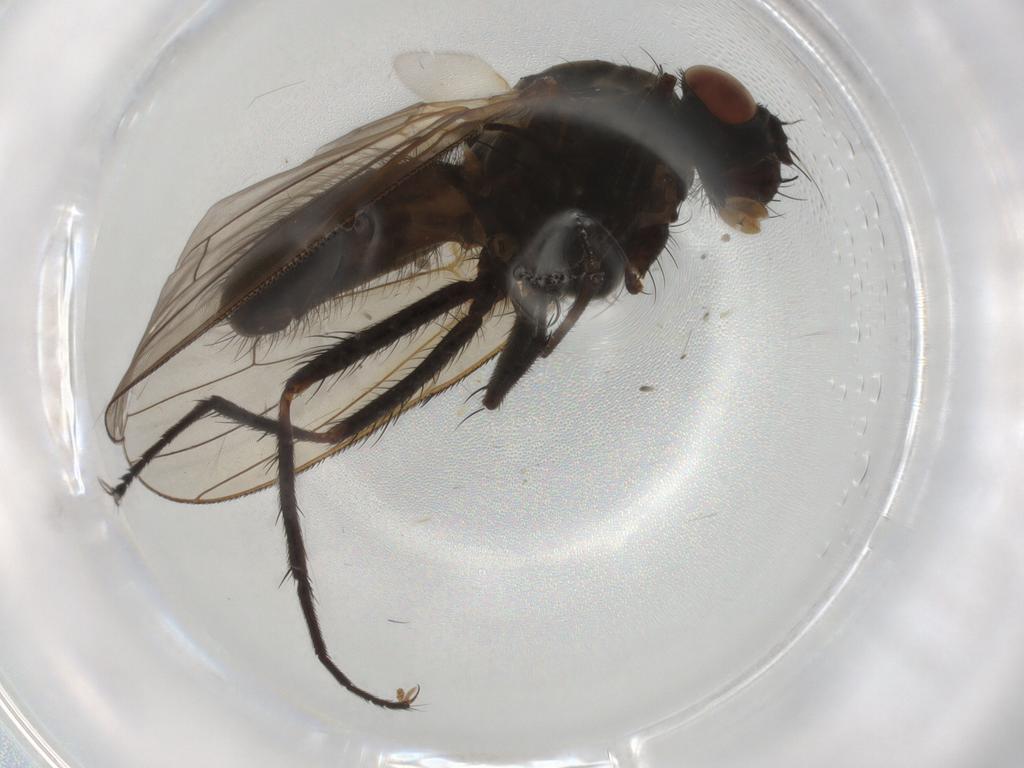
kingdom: Animalia
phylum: Arthropoda
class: Insecta
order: Diptera
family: Anthomyiidae
